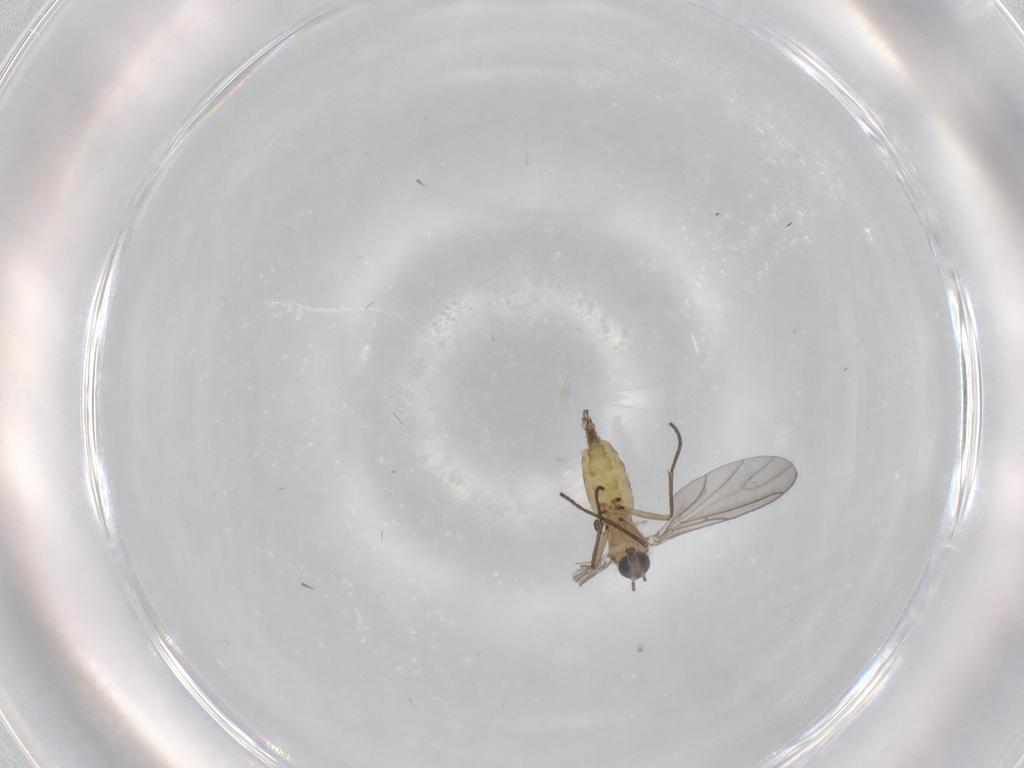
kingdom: Animalia
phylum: Arthropoda
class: Insecta
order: Diptera
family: Sciaridae
